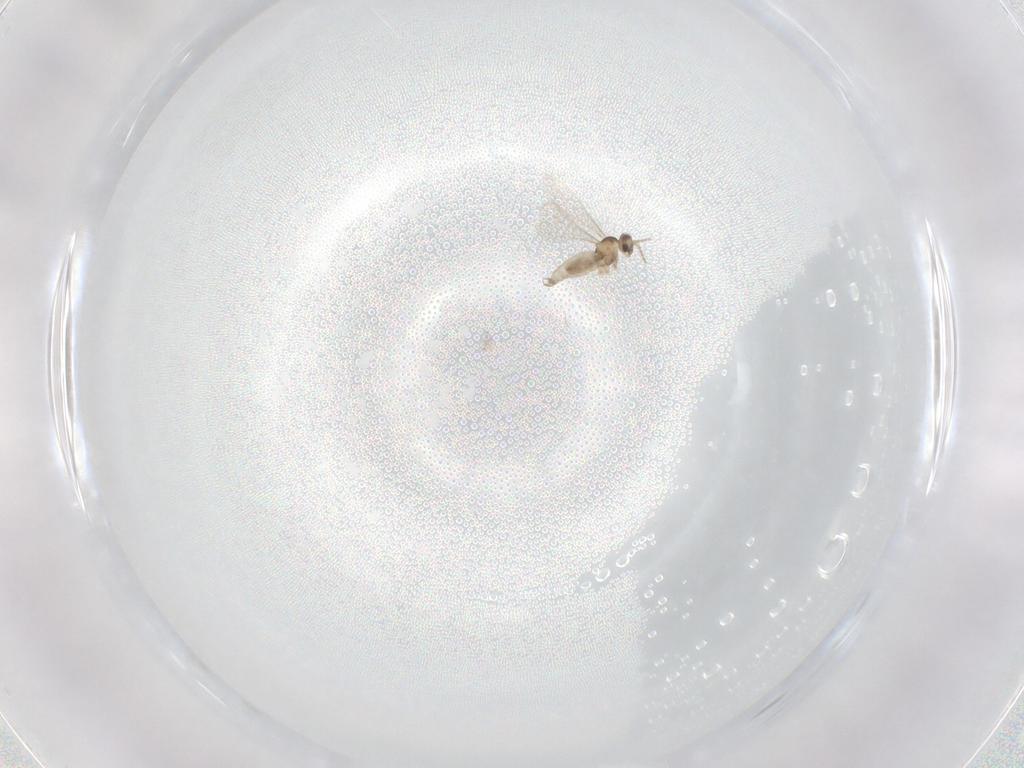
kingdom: Animalia
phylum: Arthropoda
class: Insecta
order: Diptera
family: Cecidomyiidae
